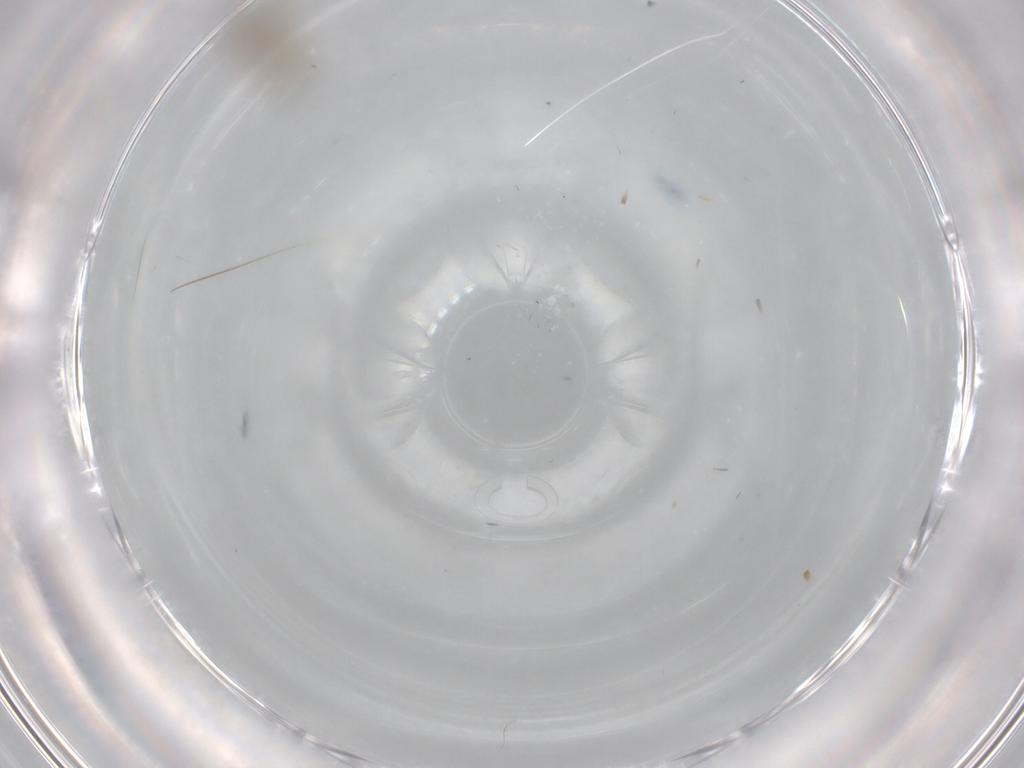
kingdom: Animalia
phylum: Arthropoda
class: Insecta
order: Diptera
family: Cecidomyiidae
